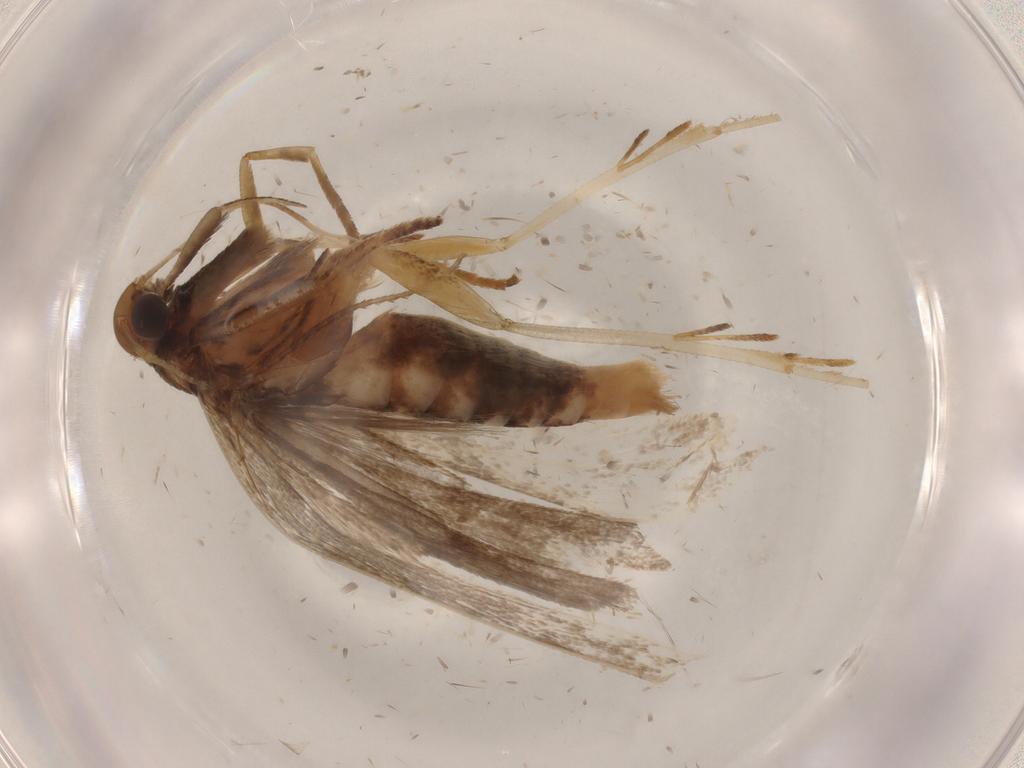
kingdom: Animalia
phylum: Arthropoda
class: Insecta
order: Lepidoptera
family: Gelechiidae
